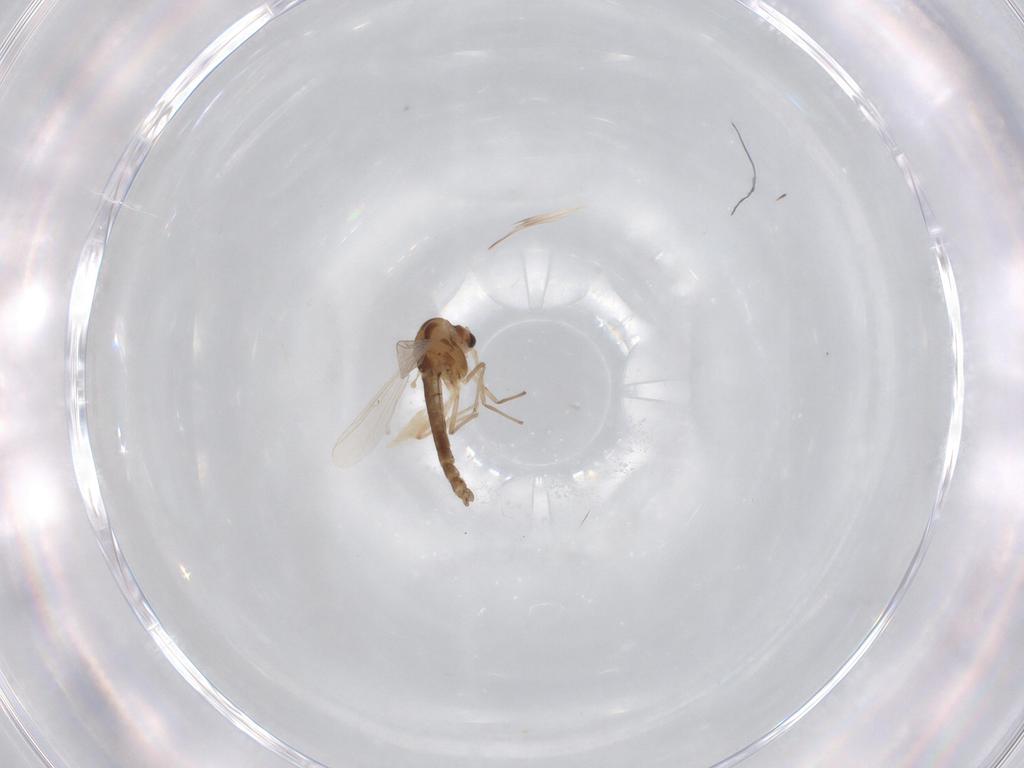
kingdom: Animalia
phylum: Arthropoda
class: Insecta
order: Diptera
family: Chironomidae
